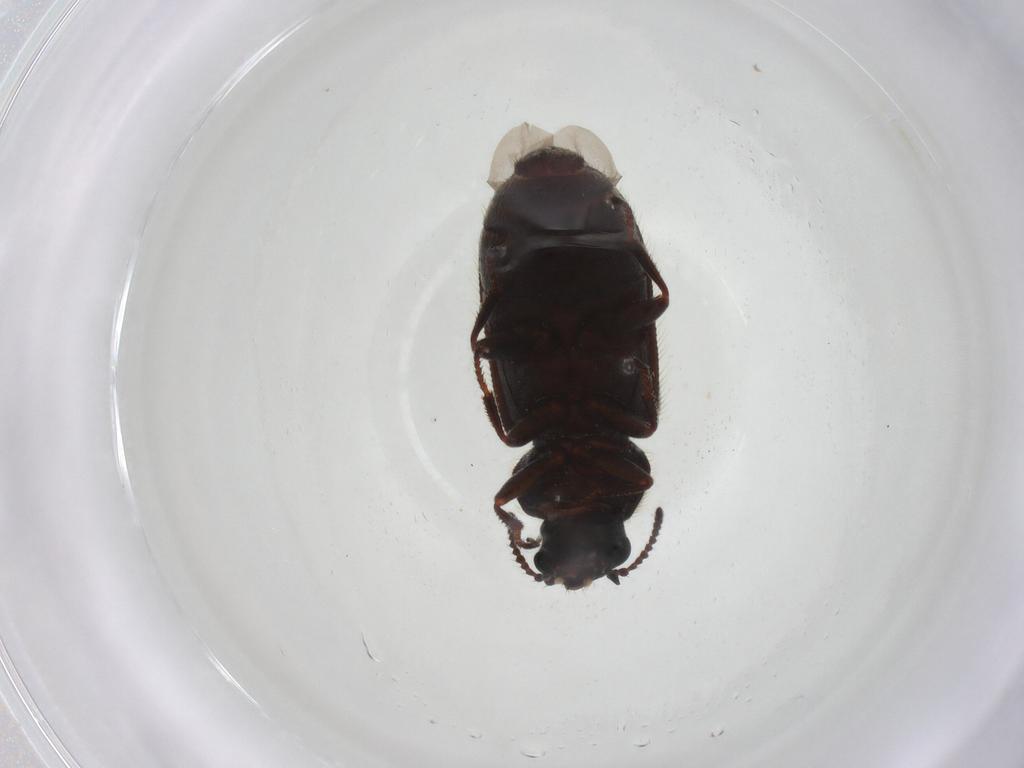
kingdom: Animalia
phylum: Arthropoda
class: Insecta
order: Coleoptera
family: Melyridae
